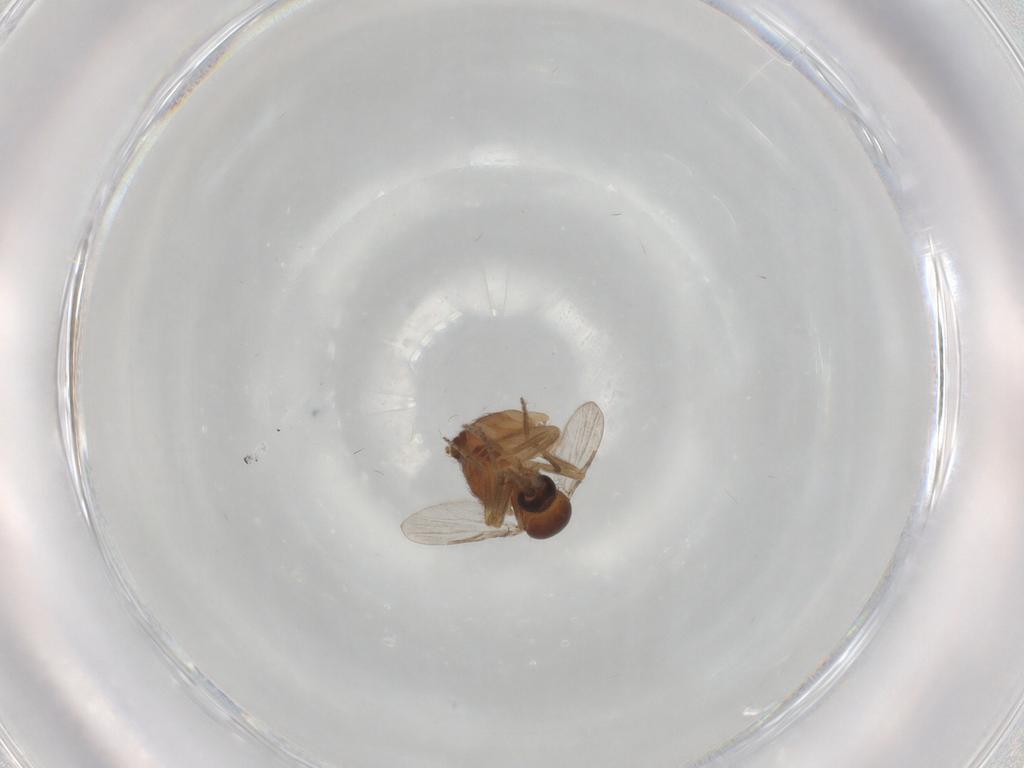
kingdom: Animalia
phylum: Arthropoda
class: Insecta
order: Diptera
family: Ceratopogonidae
